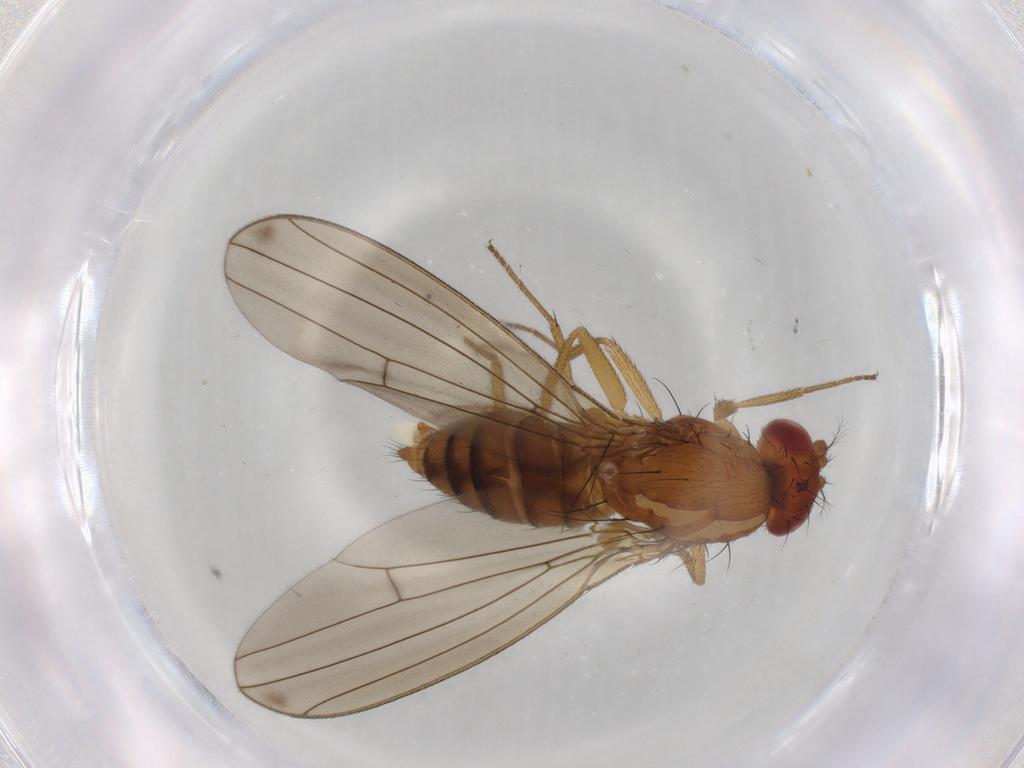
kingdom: Animalia
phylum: Arthropoda
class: Insecta
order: Diptera
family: Drosophilidae
